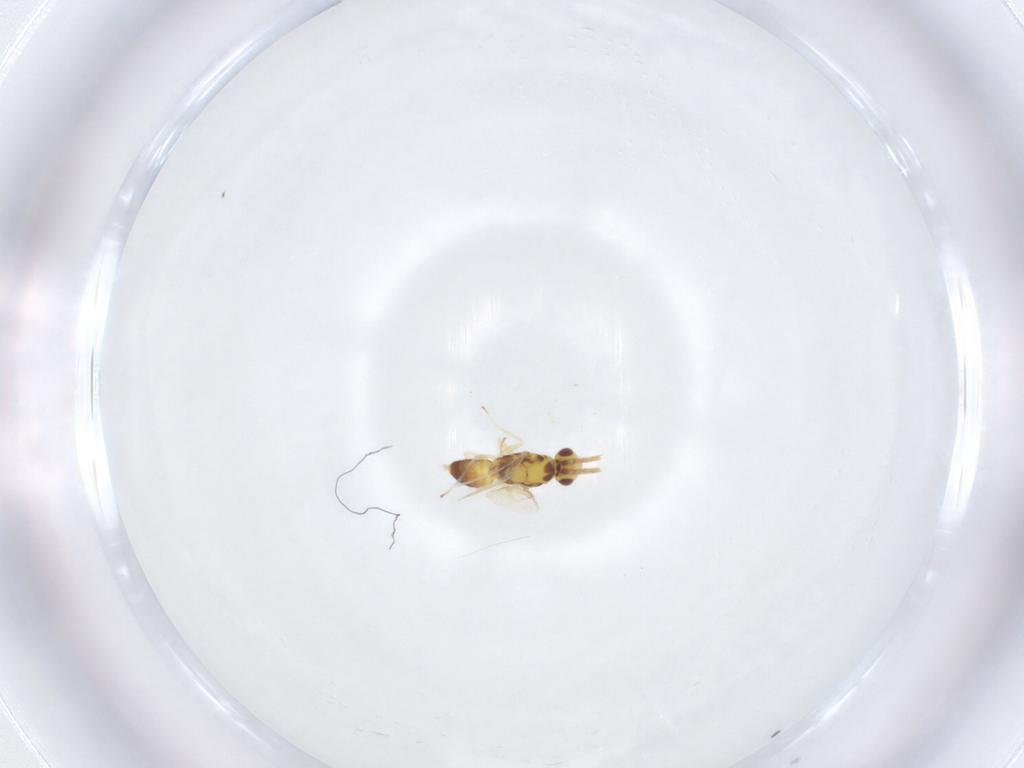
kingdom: Animalia
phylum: Arthropoda
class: Insecta
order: Hymenoptera
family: Eulophidae
